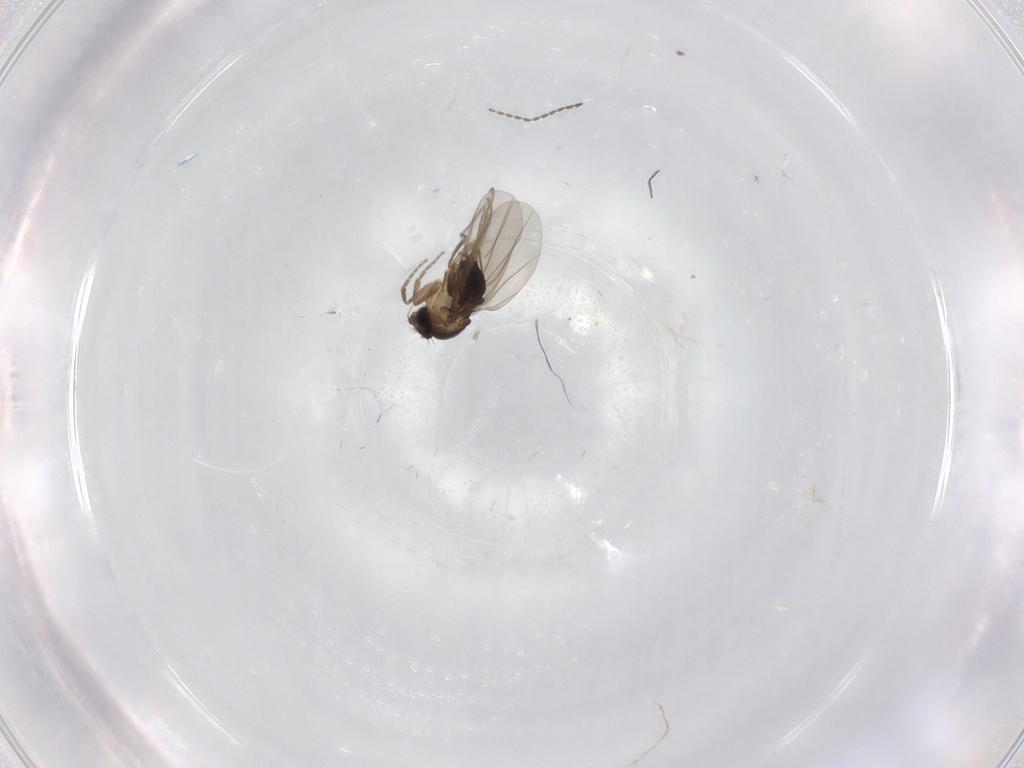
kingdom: Animalia
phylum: Arthropoda
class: Insecta
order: Diptera
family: Phoridae
